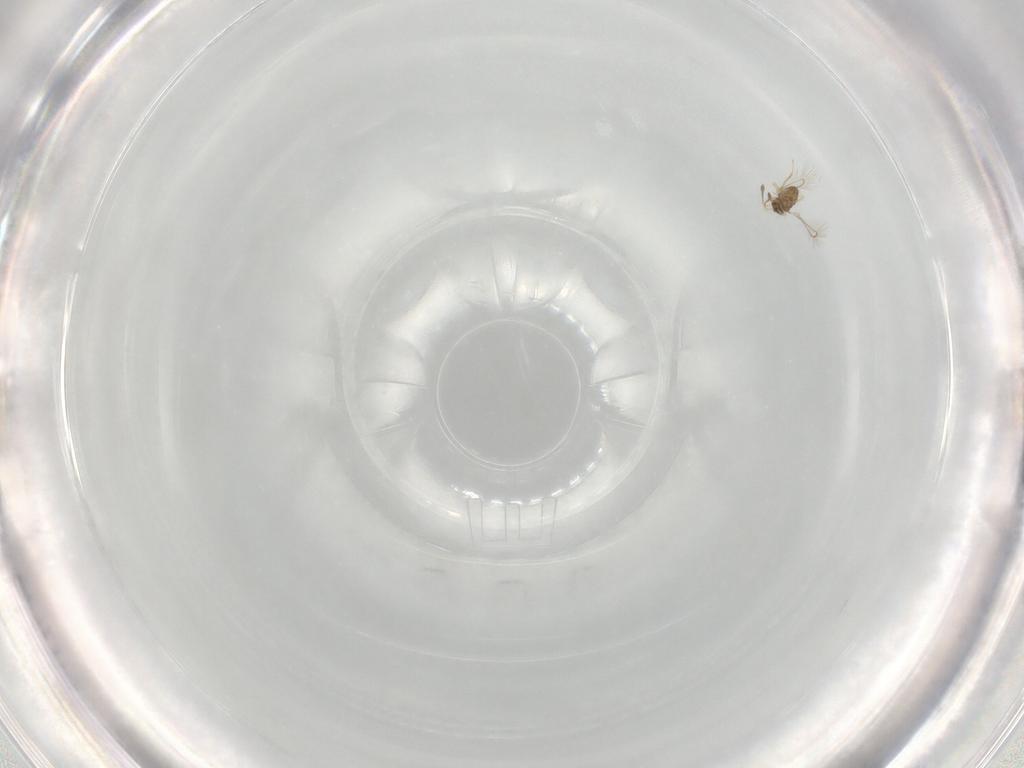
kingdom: Animalia
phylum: Arthropoda
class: Insecta
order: Hymenoptera
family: Mymaridae
